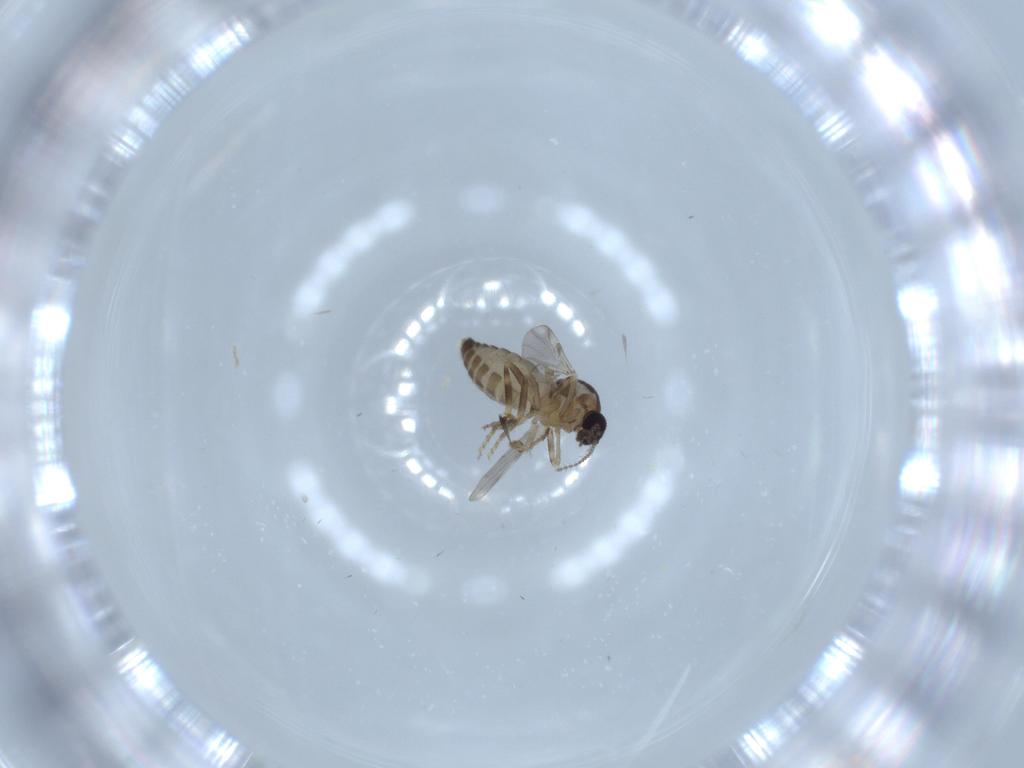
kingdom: Animalia
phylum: Arthropoda
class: Insecta
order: Diptera
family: Ceratopogonidae
